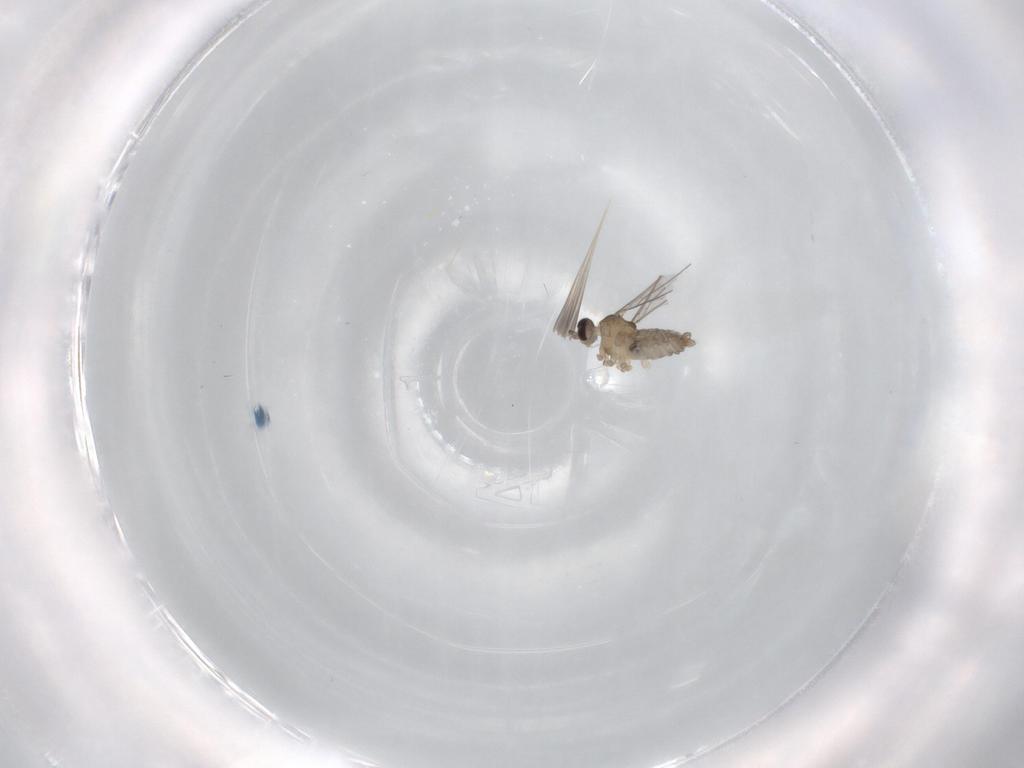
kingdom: Animalia
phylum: Arthropoda
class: Insecta
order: Diptera
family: Cecidomyiidae
